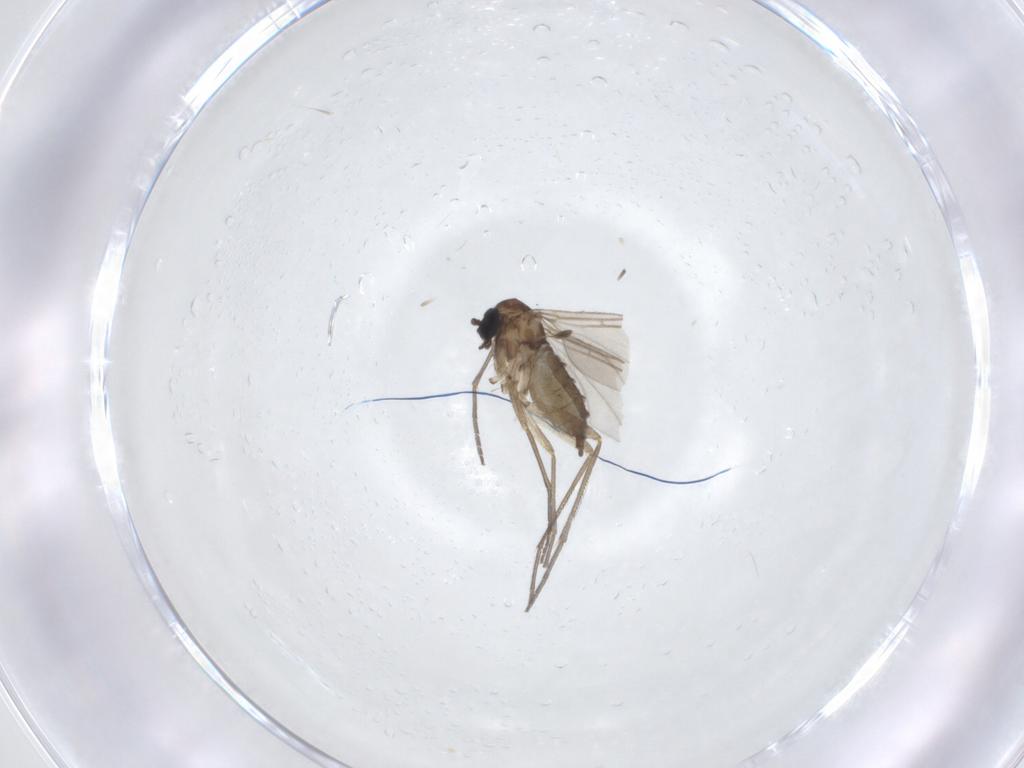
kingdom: Animalia
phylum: Arthropoda
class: Insecta
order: Diptera
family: Sciaridae
